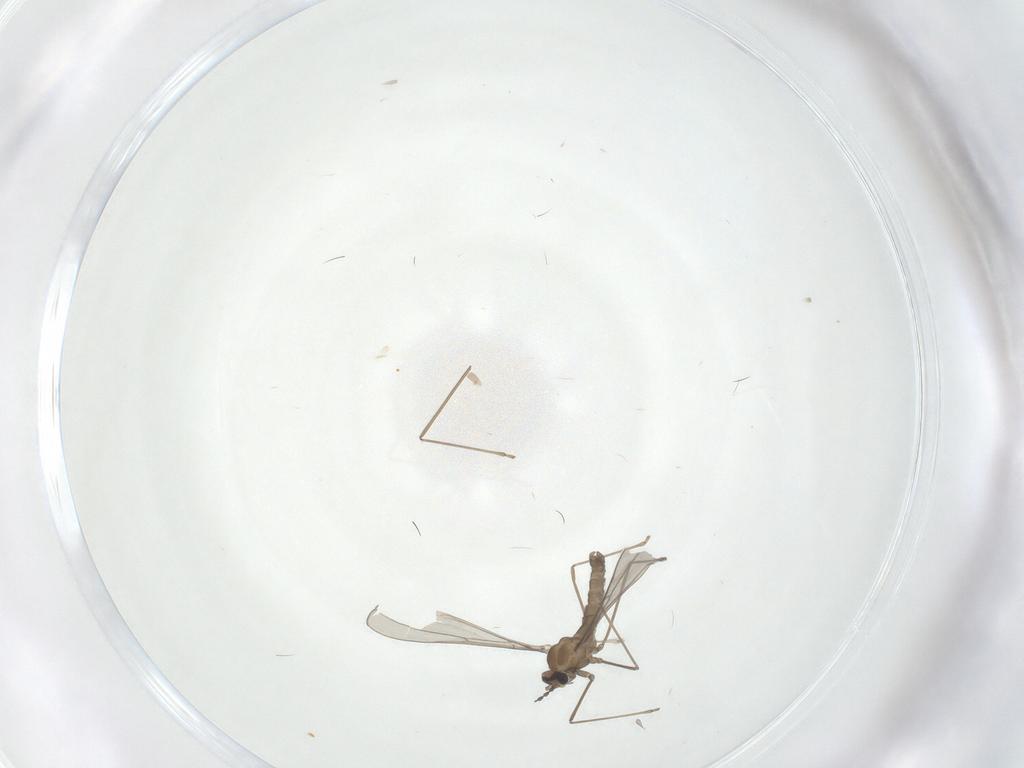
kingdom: Animalia
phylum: Arthropoda
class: Insecta
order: Diptera
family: Cecidomyiidae
